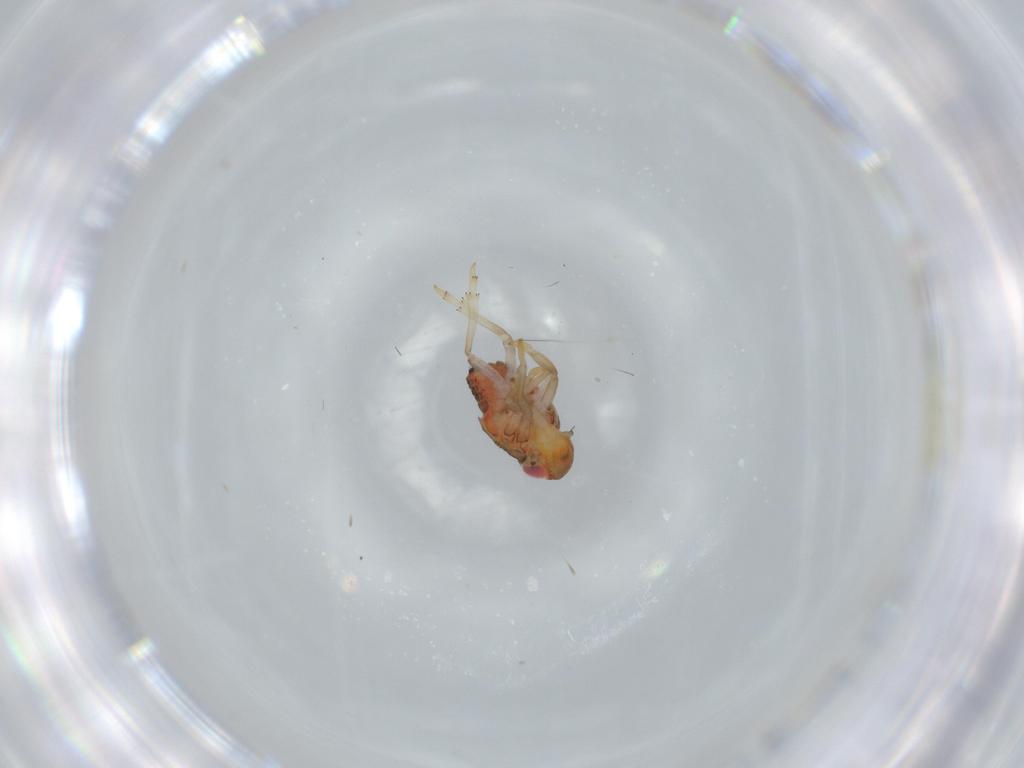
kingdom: Animalia
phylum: Arthropoda
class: Insecta
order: Hemiptera
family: Issidae
